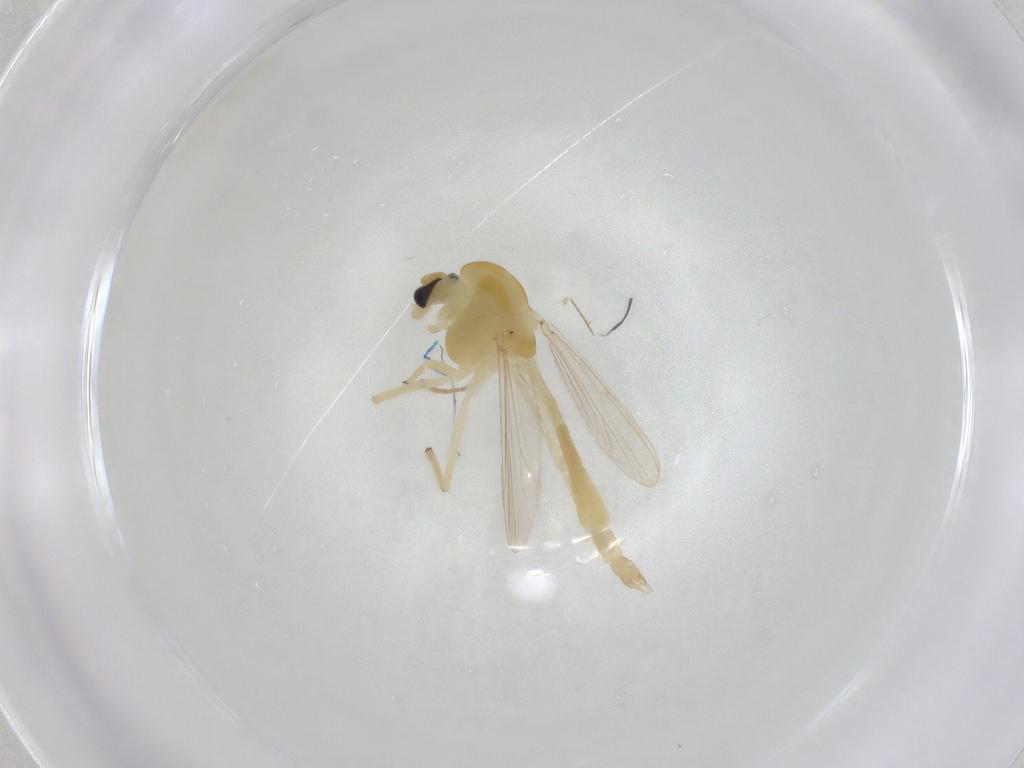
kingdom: Animalia
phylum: Arthropoda
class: Insecta
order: Diptera
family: Chironomidae
